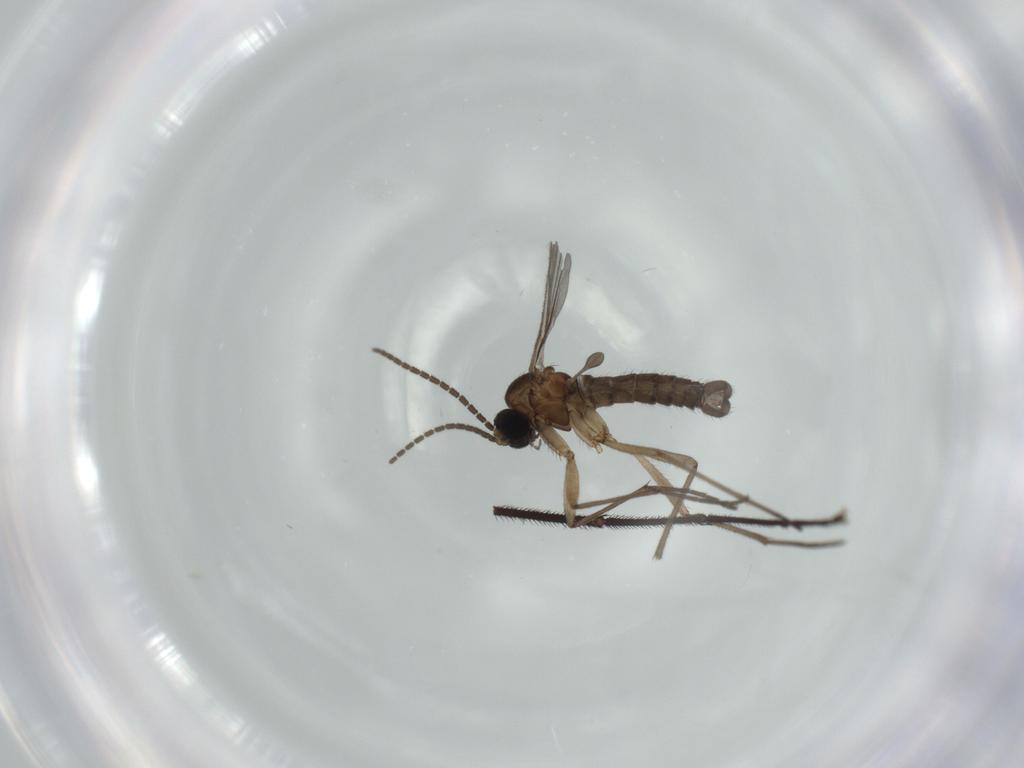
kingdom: Animalia
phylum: Arthropoda
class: Insecta
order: Diptera
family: Sciaridae
